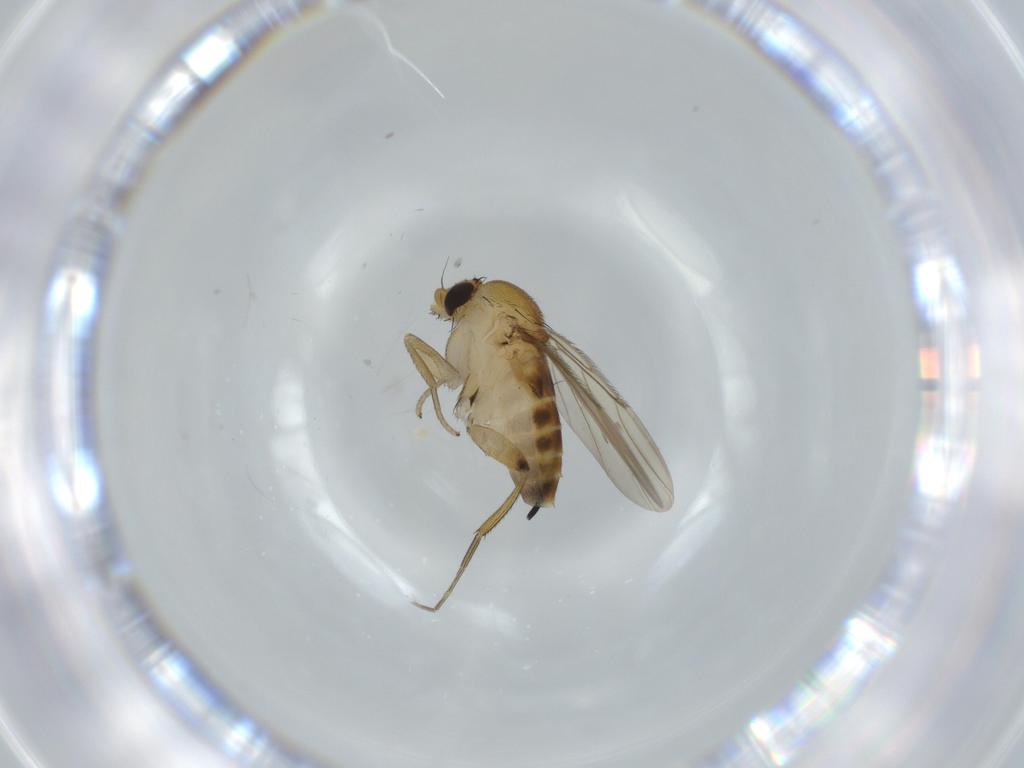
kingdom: Animalia
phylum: Arthropoda
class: Insecta
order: Diptera
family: Phoridae
